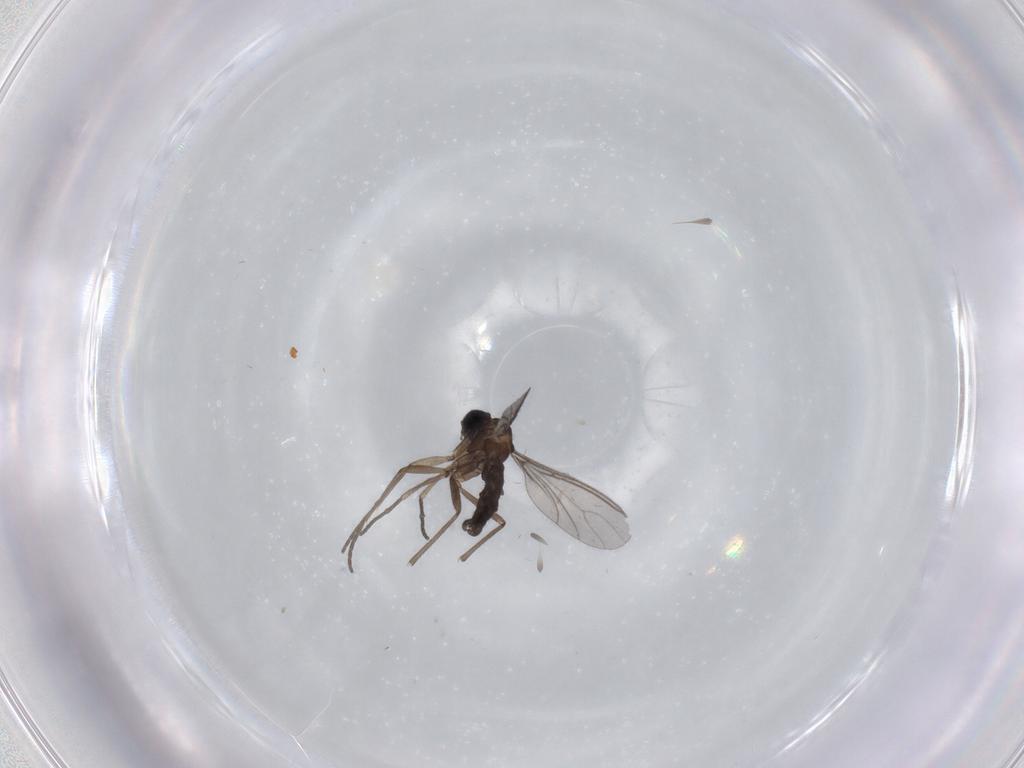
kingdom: Animalia
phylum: Arthropoda
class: Insecta
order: Diptera
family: Sciaridae
